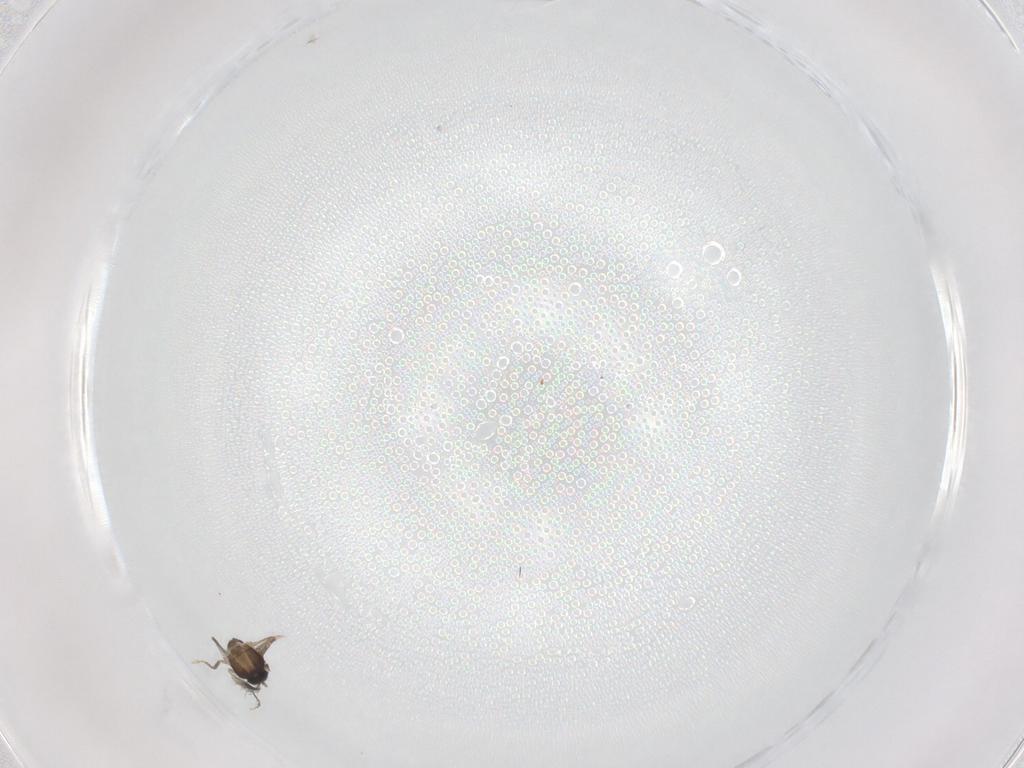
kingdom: Animalia
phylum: Arthropoda
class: Insecta
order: Diptera
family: Ceratopogonidae
